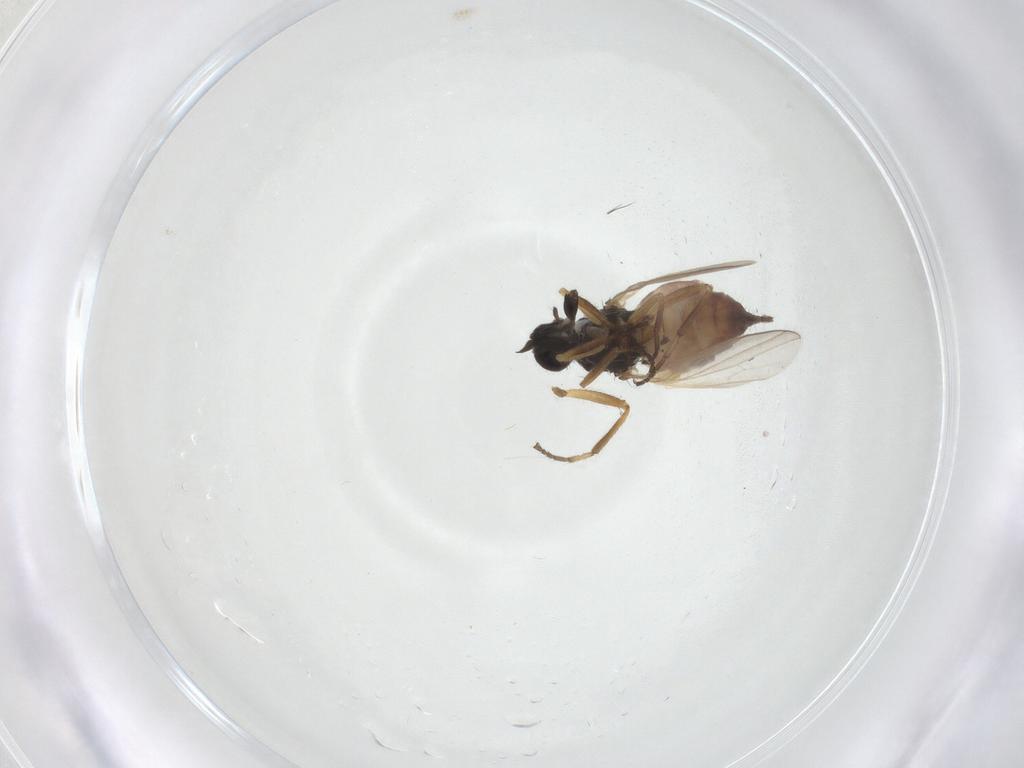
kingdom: Animalia
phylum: Arthropoda
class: Insecta
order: Diptera
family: Hybotidae
